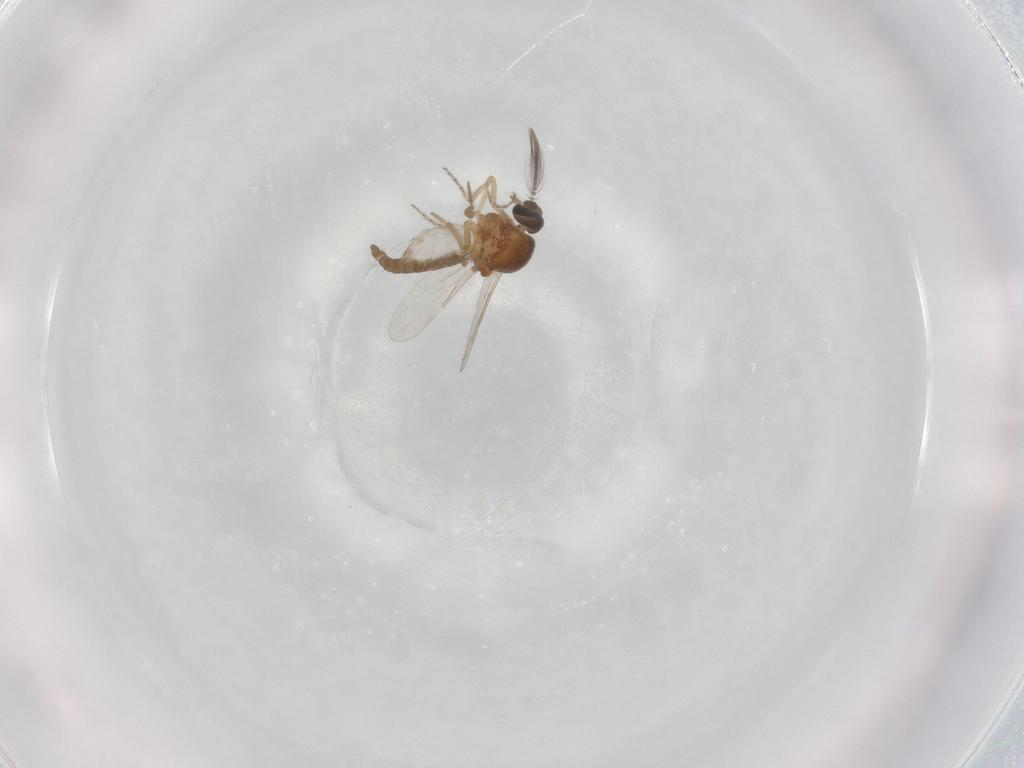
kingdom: Animalia
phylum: Arthropoda
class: Insecta
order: Diptera
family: Ceratopogonidae
